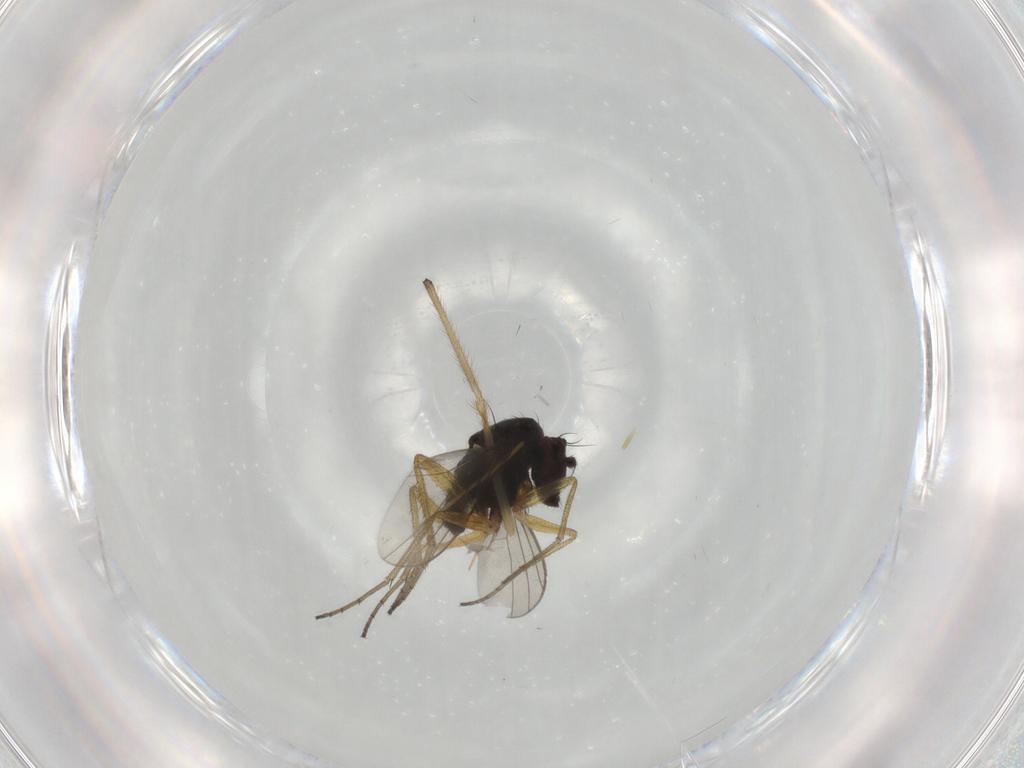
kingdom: Animalia
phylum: Arthropoda
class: Insecta
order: Diptera
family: Dolichopodidae
